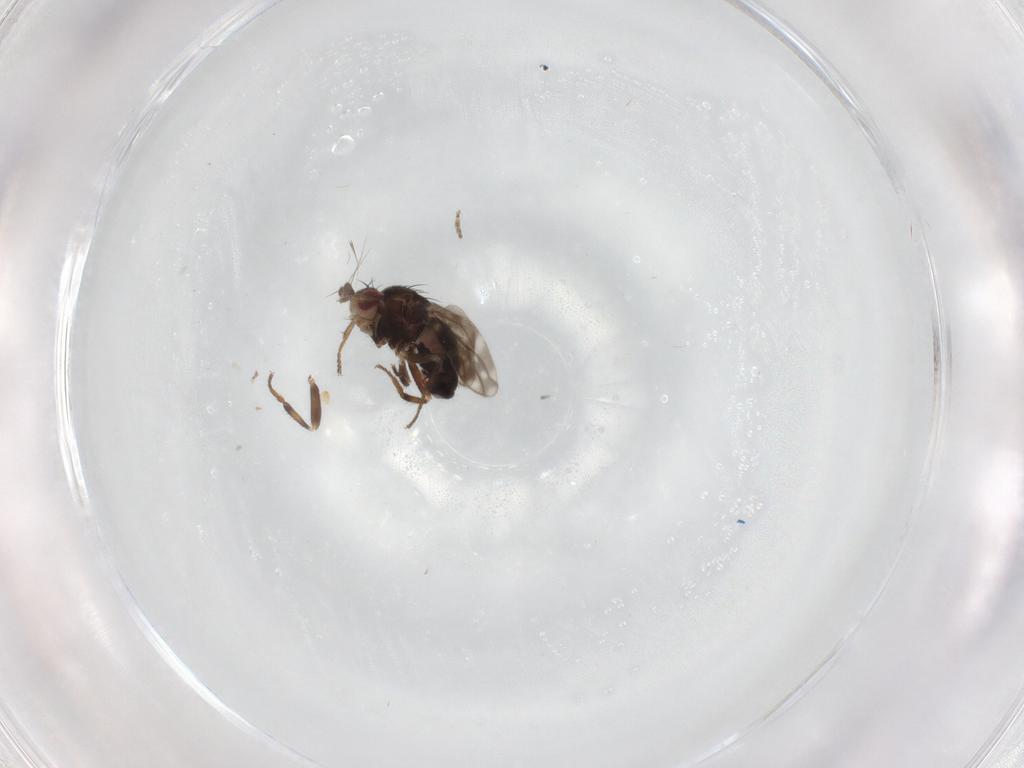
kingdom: Animalia
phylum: Arthropoda
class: Insecta
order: Diptera
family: Sphaeroceridae
